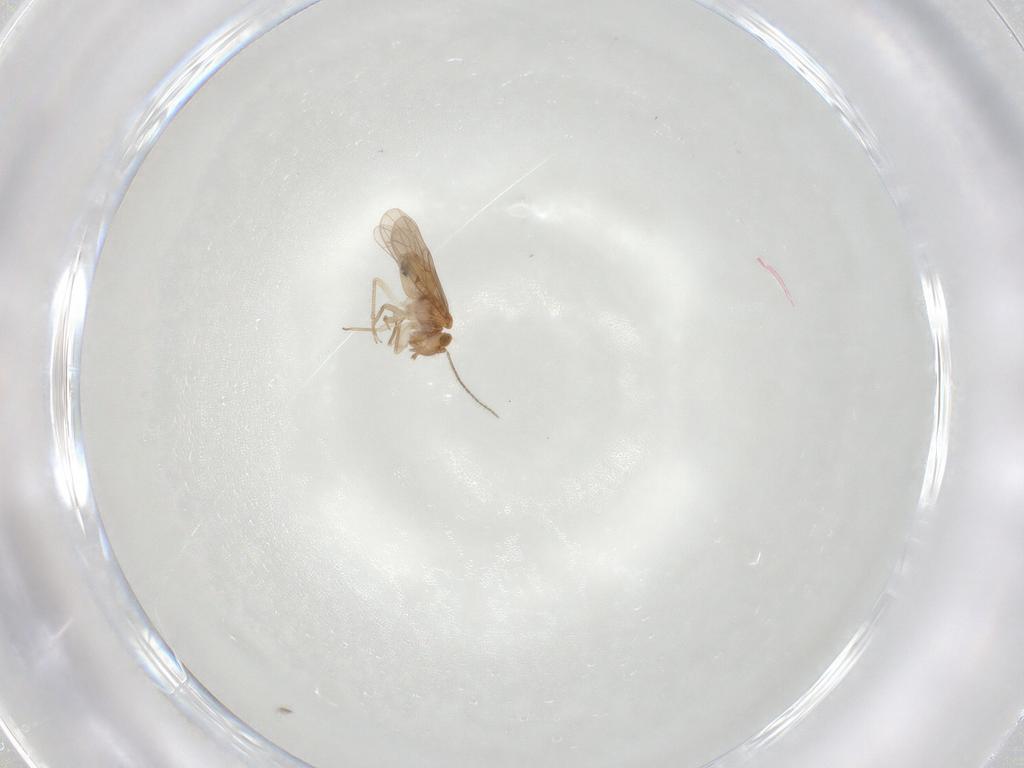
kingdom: Animalia
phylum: Arthropoda
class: Insecta
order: Psocodea
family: Ectopsocidae
